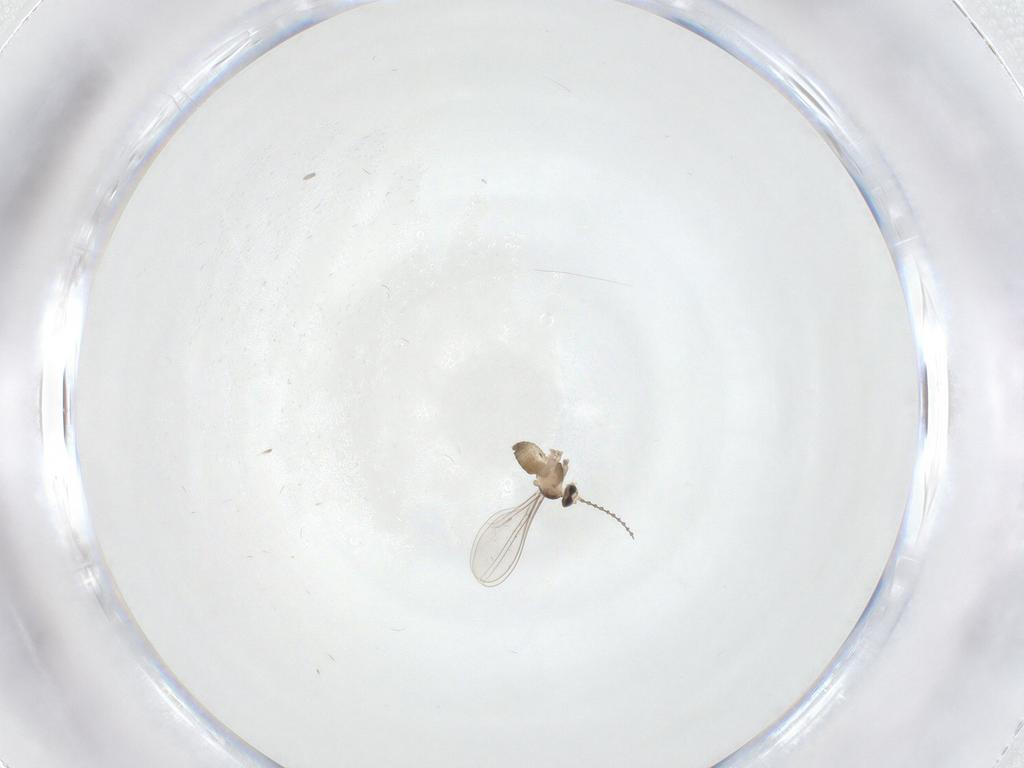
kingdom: Animalia
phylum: Arthropoda
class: Insecta
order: Diptera
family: Cecidomyiidae
